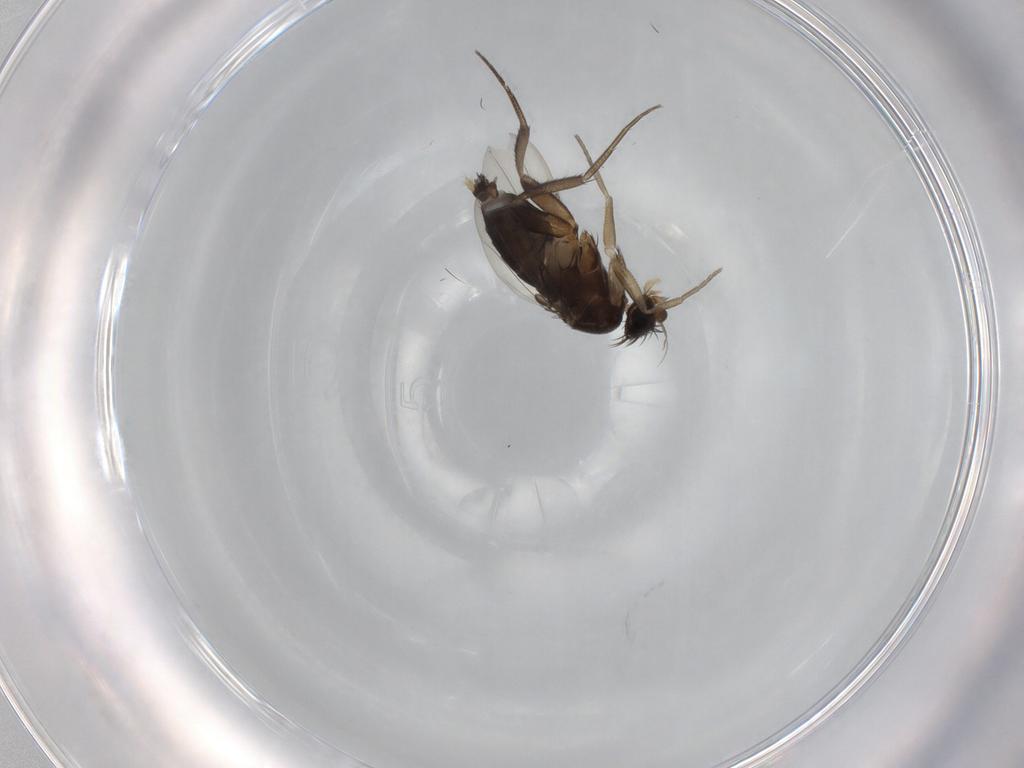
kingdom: Animalia
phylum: Arthropoda
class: Insecta
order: Diptera
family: Phoridae
